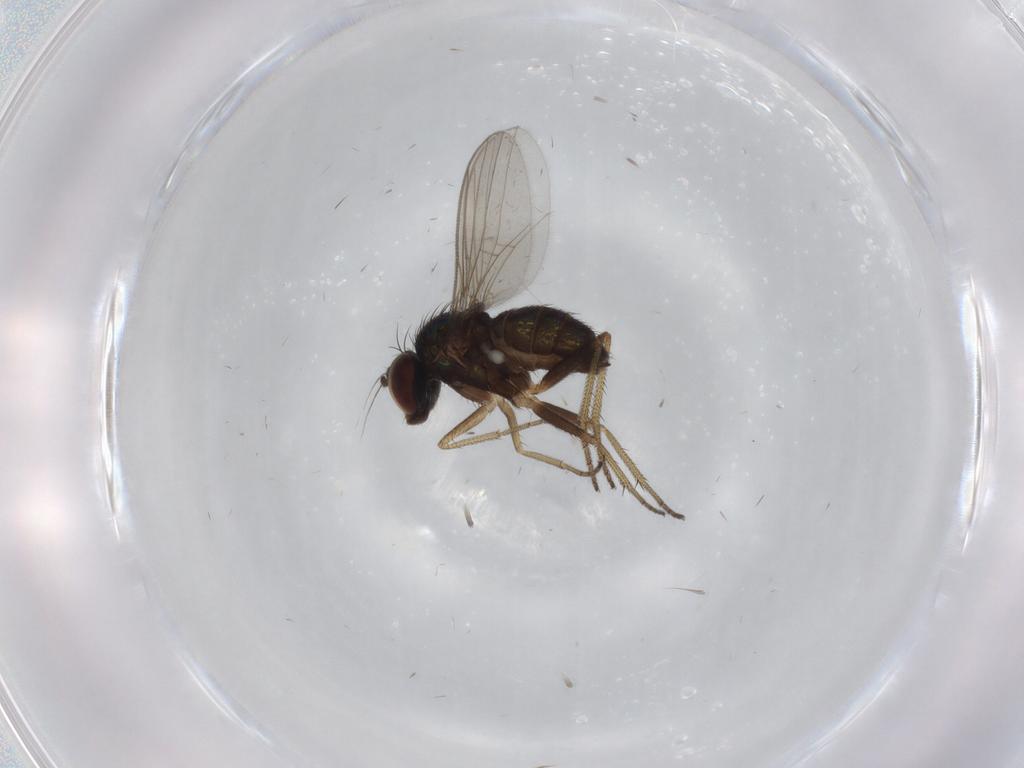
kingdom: Animalia
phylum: Arthropoda
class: Insecta
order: Diptera
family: Dolichopodidae
